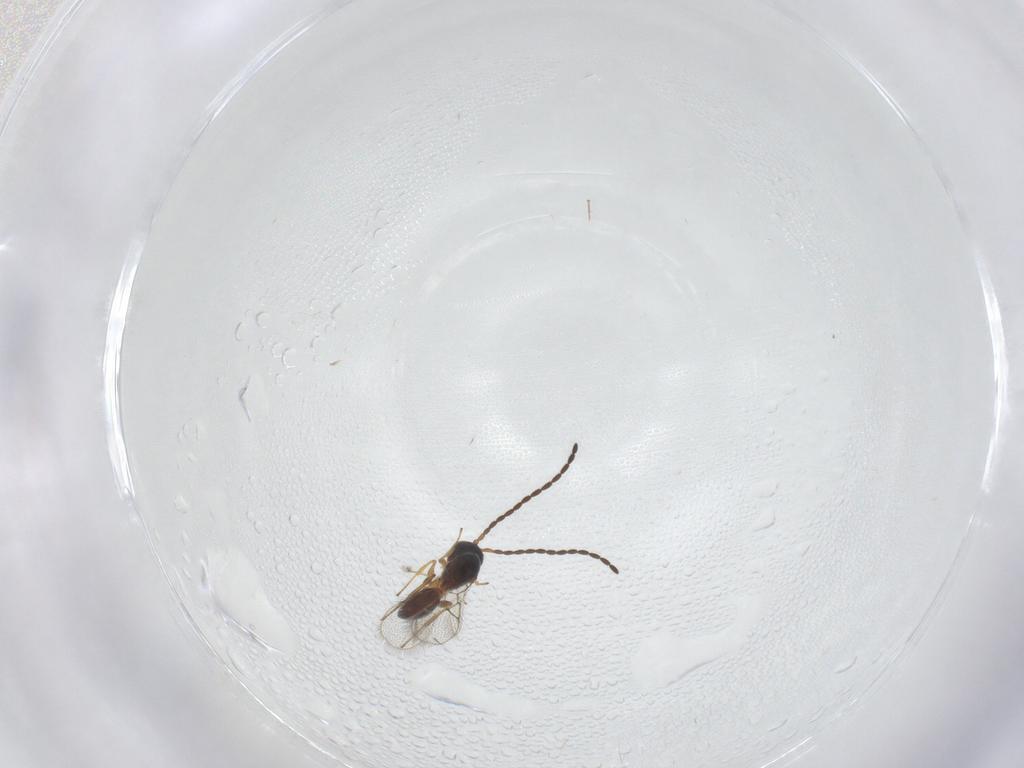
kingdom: Animalia
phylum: Arthropoda
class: Insecta
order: Hymenoptera
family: Figitidae
